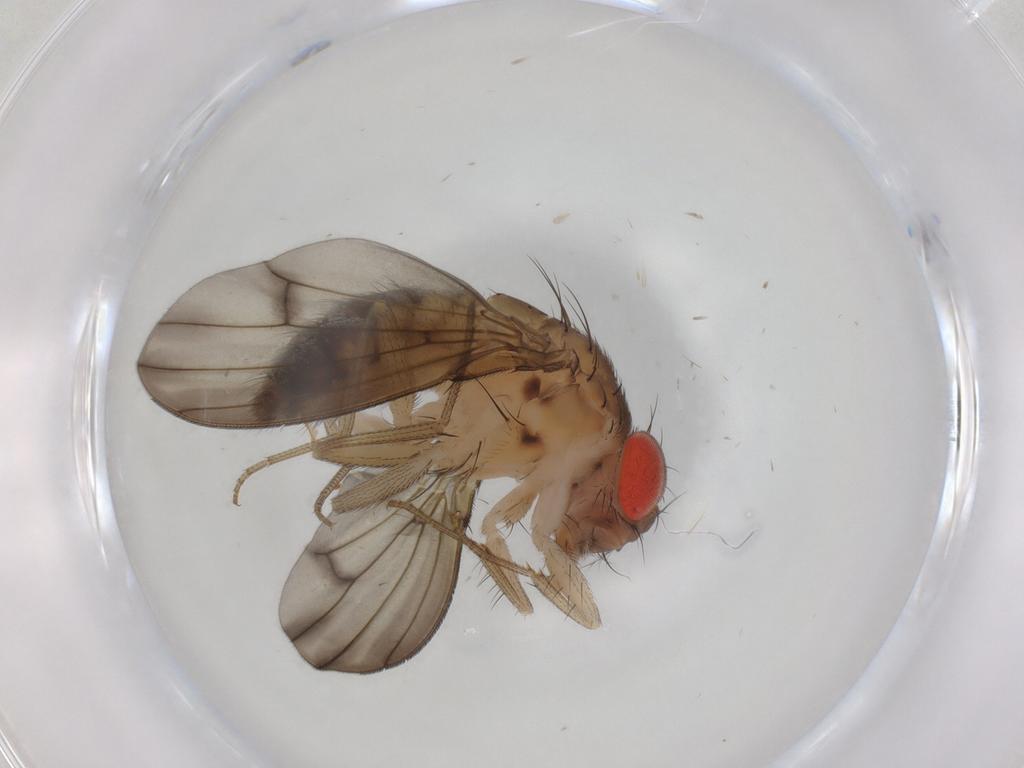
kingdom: Animalia
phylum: Arthropoda
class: Insecta
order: Diptera
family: Drosophilidae
